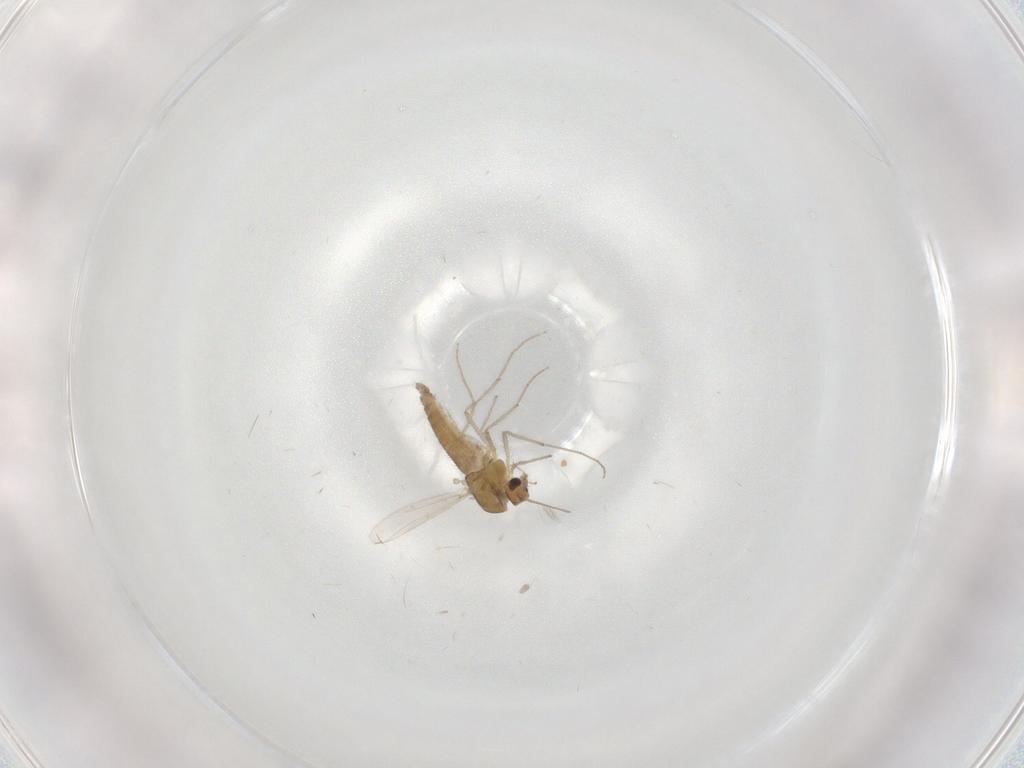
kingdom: Animalia
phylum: Arthropoda
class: Insecta
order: Diptera
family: Chironomidae
